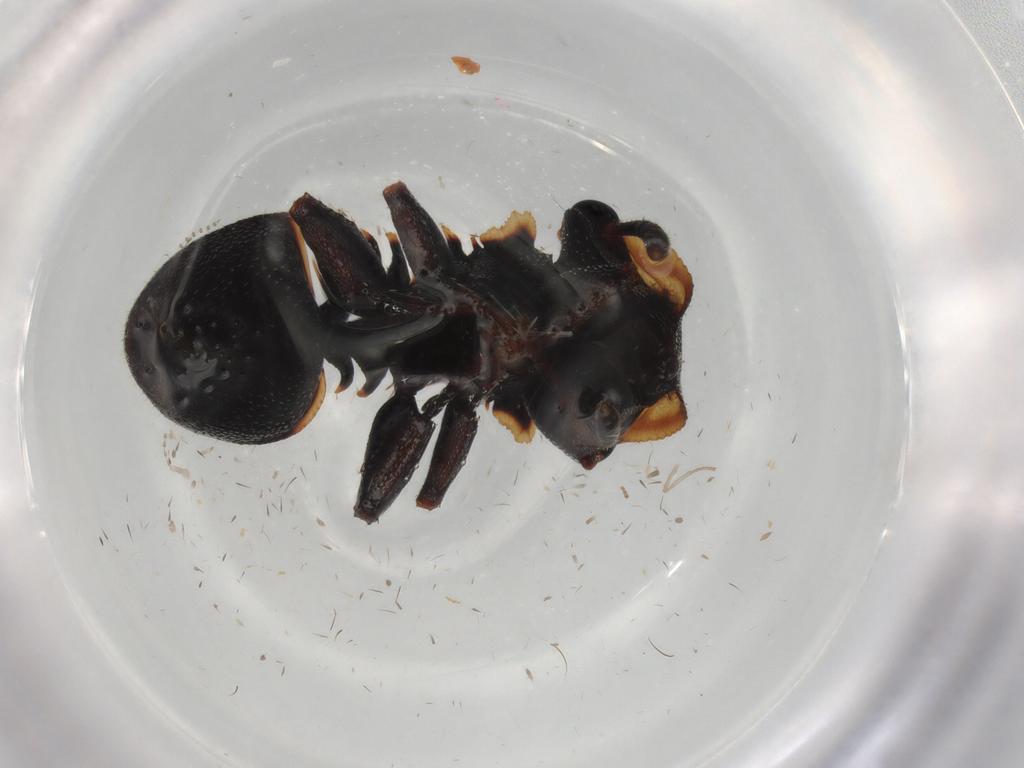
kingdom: Animalia
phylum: Arthropoda
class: Insecta
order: Hymenoptera
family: Formicidae
